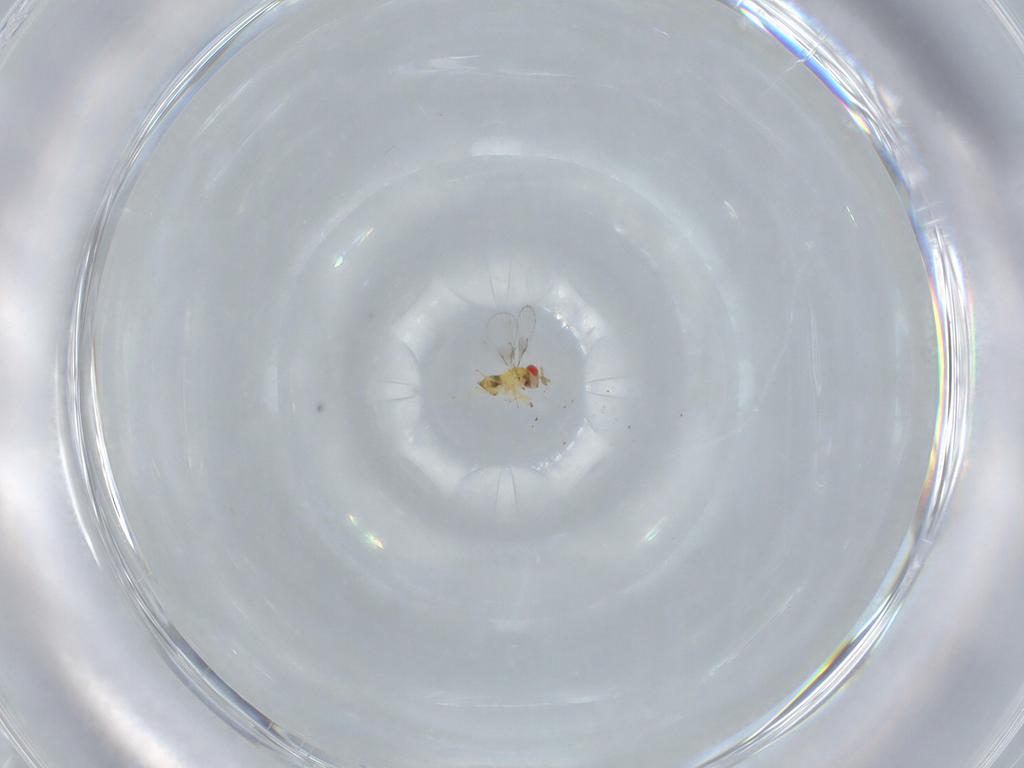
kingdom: Animalia
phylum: Arthropoda
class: Insecta
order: Hymenoptera
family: Trichogrammatidae
